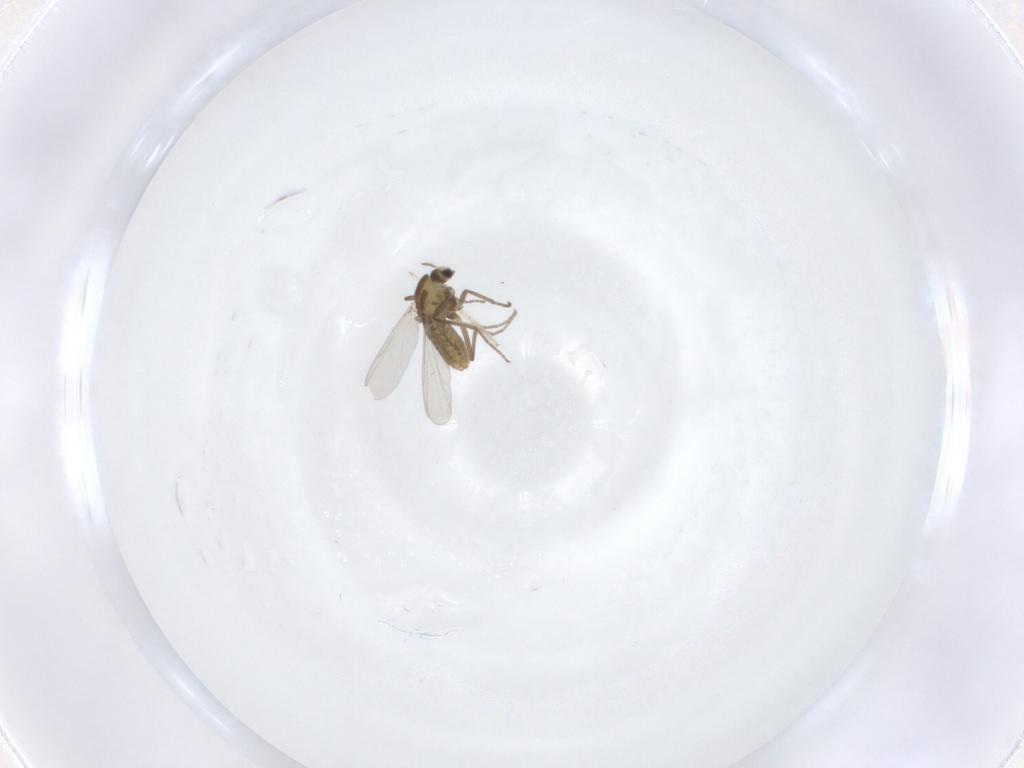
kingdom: Animalia
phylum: Arthropoda
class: Insecta
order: Diptera
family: Chironomidae
